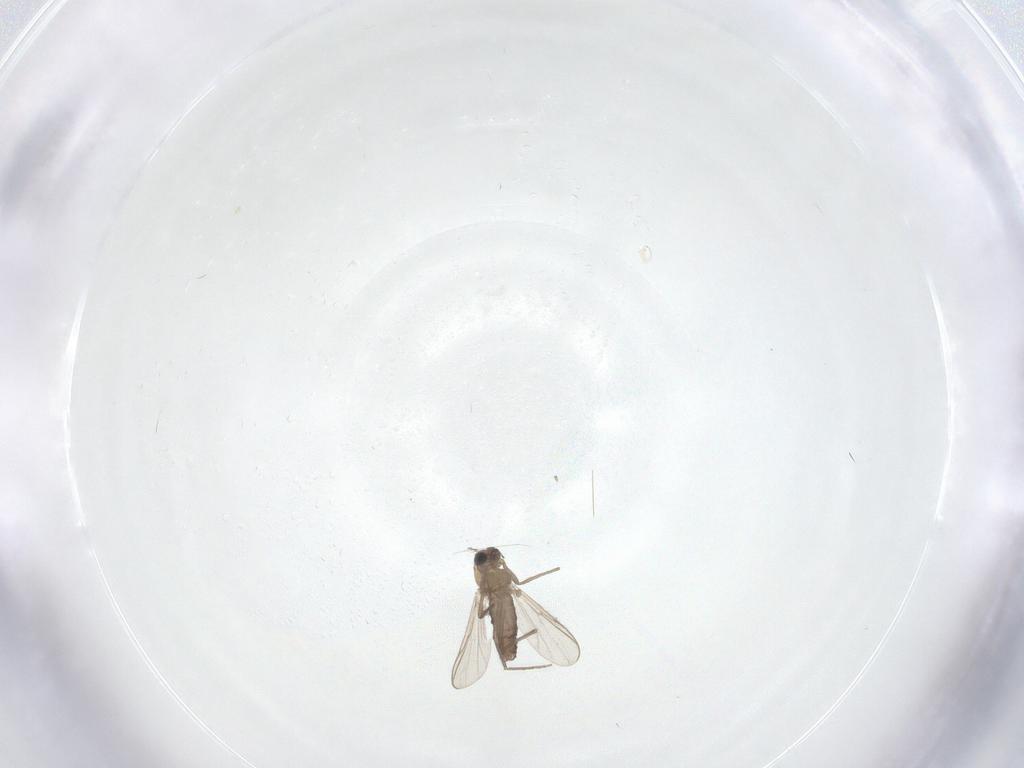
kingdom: Animalia
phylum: Arthropoda
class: Insecta
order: Diptera
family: Chironomidae
